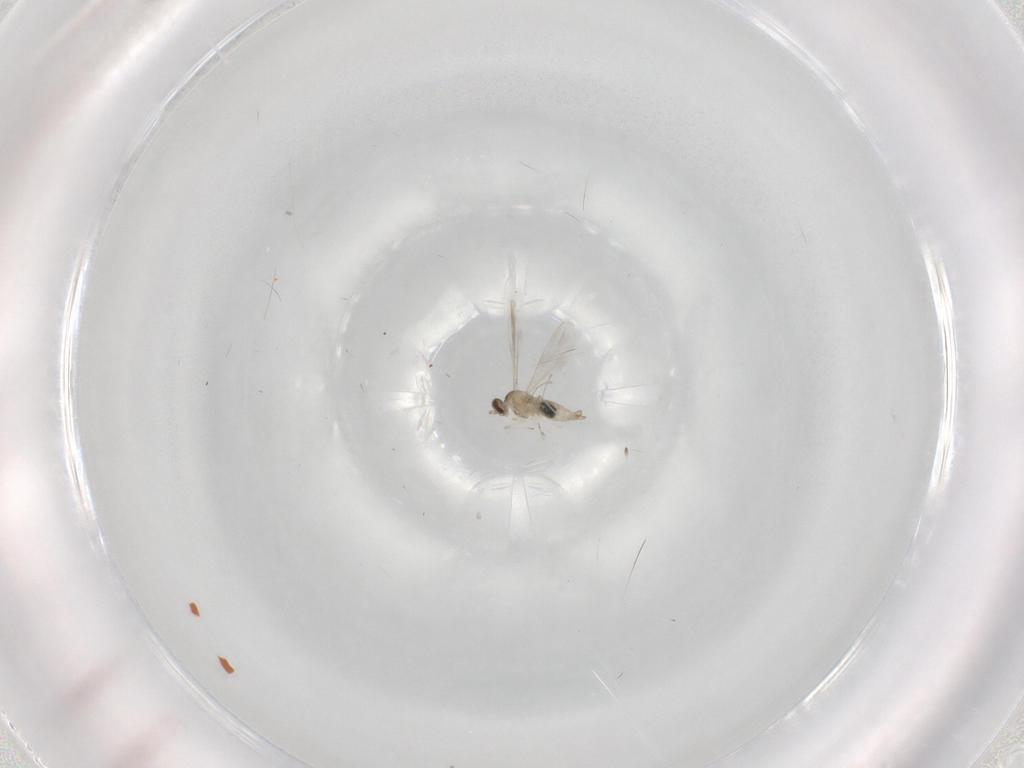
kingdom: Animalia
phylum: Arthropoda
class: Insecta
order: Diptera
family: Cecidomyiidae
